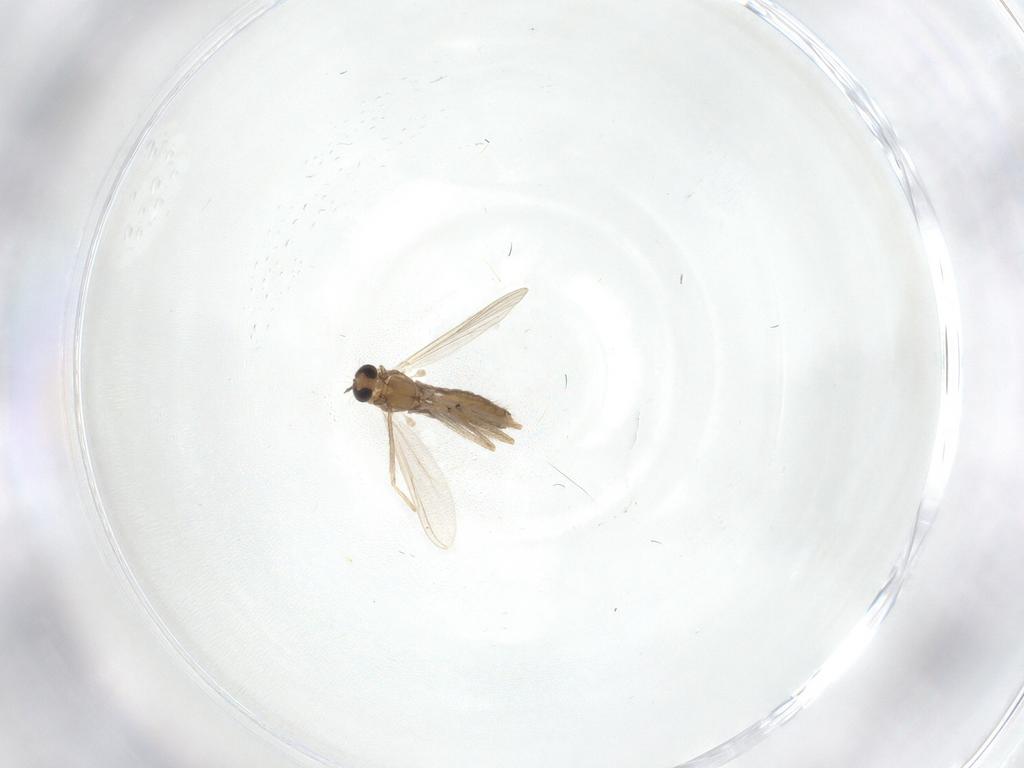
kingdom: Animalia
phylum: Arthropoda
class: Insecta
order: Diptera
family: Chironomidae
